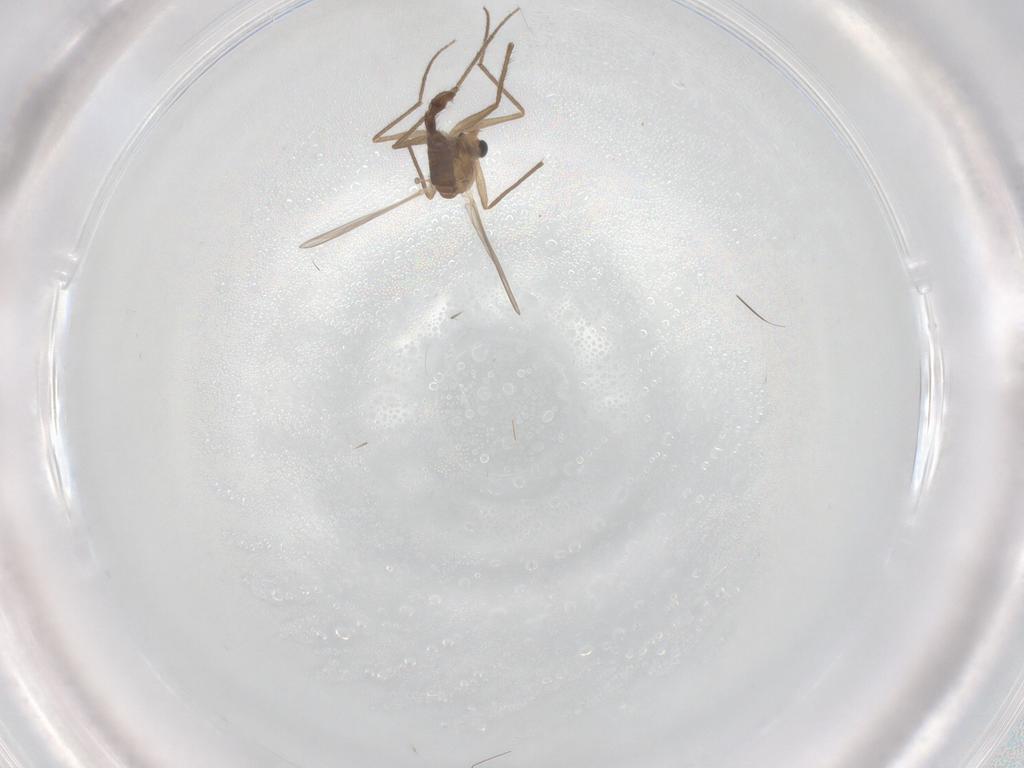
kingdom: Animalia
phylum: Arthropoda
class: Insecta
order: Diptera
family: Chironomidae
